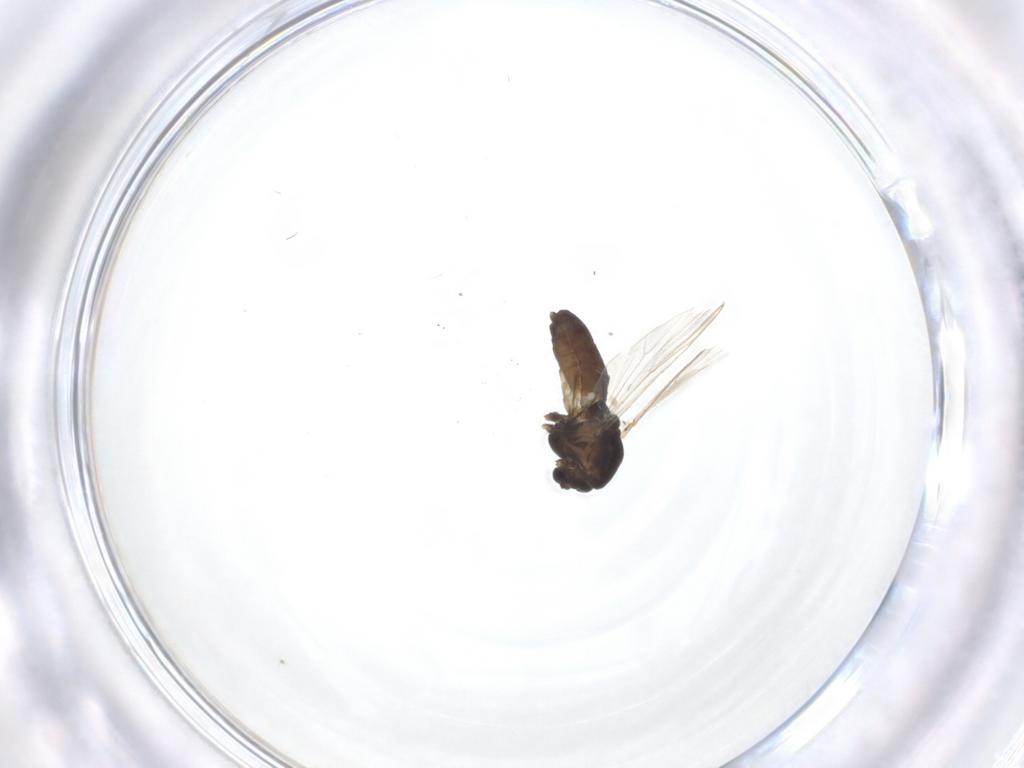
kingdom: Animalia
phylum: Arthropoda
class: Insecta
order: Diptera
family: Chironomidae
